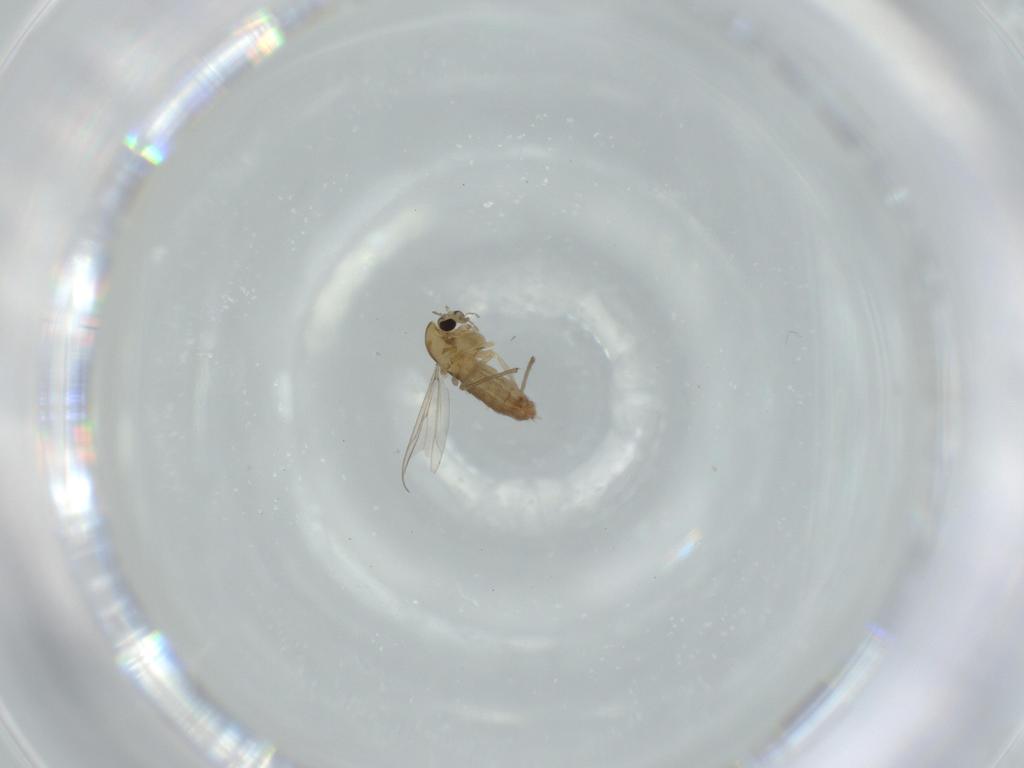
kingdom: Animalia
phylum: Arthropoda
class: Insecta
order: Diptera
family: Chironomidae
